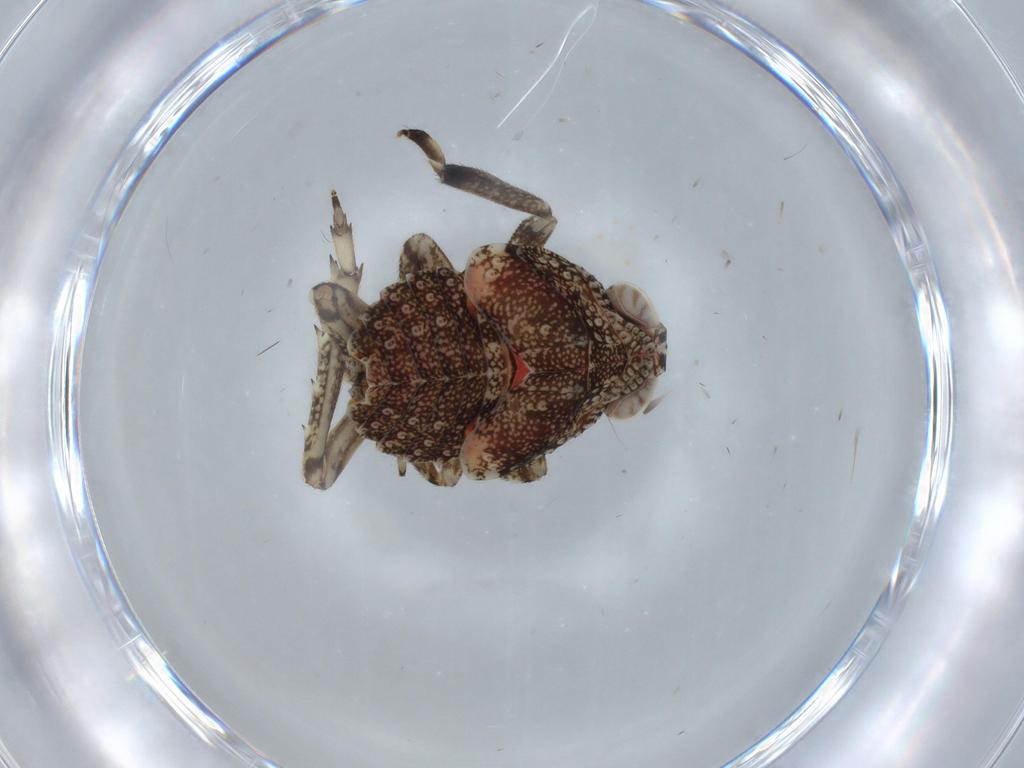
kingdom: Animalia
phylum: Arthropoda
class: Insecta
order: Hemiptera
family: Issidae
